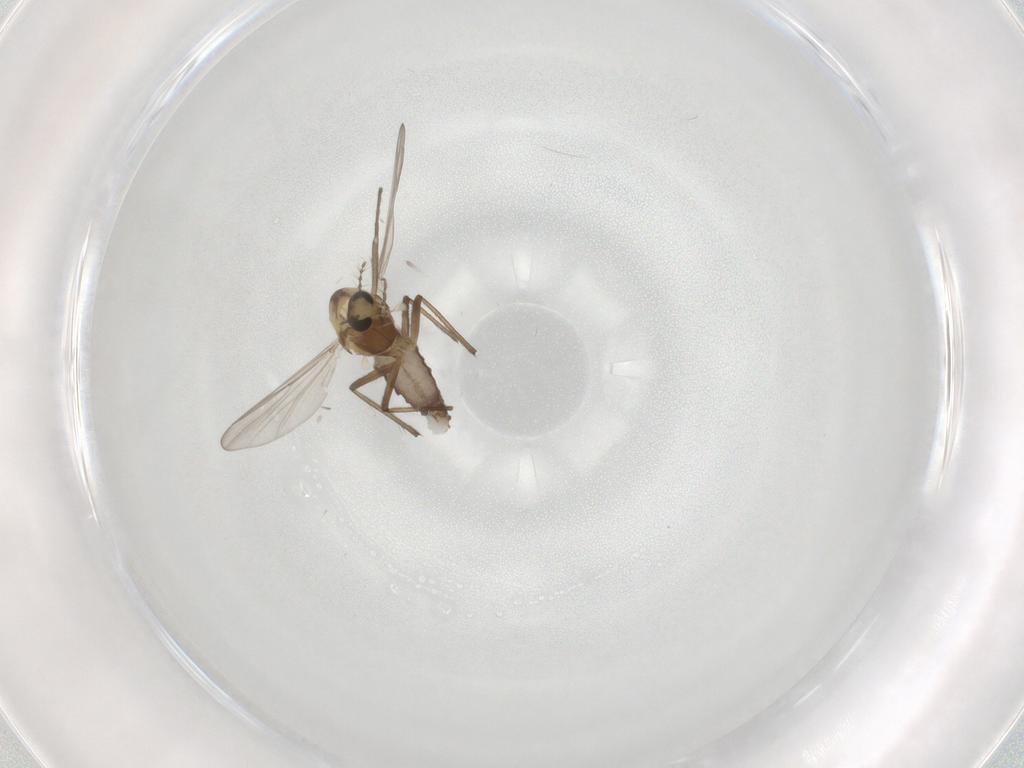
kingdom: Animalia
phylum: Arthropoda
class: Insecta
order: Diptera
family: Chironomidae
